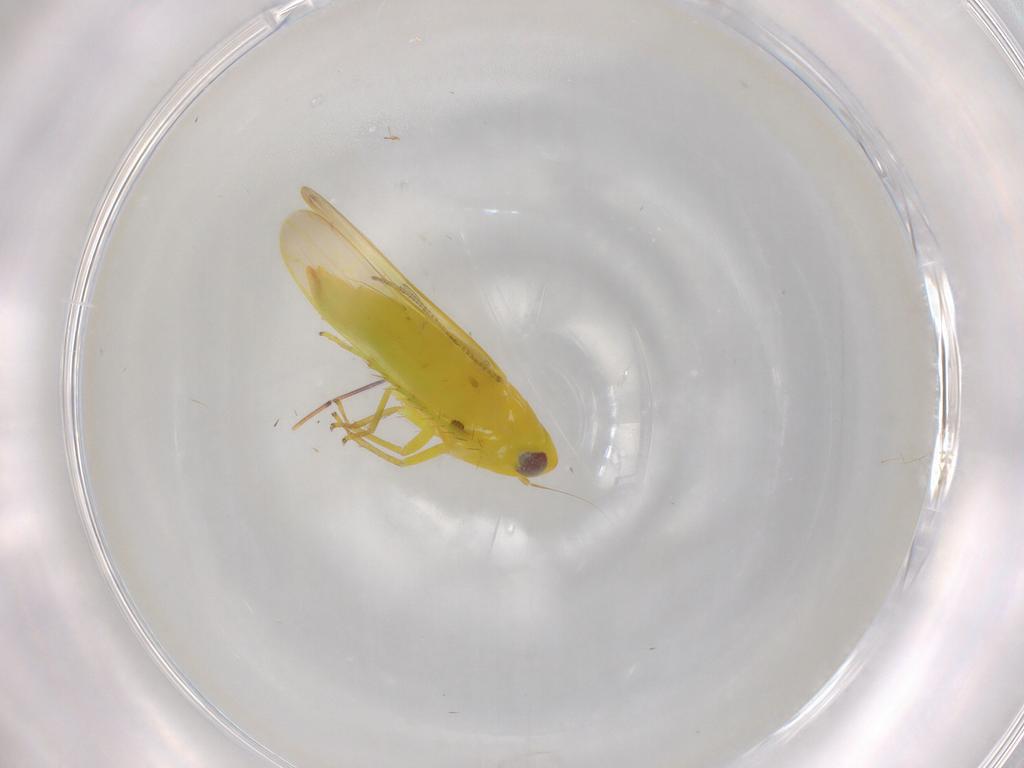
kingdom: Animalia
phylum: Arthropoda
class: Insecta
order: Hemiptera
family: Cicadellidae
